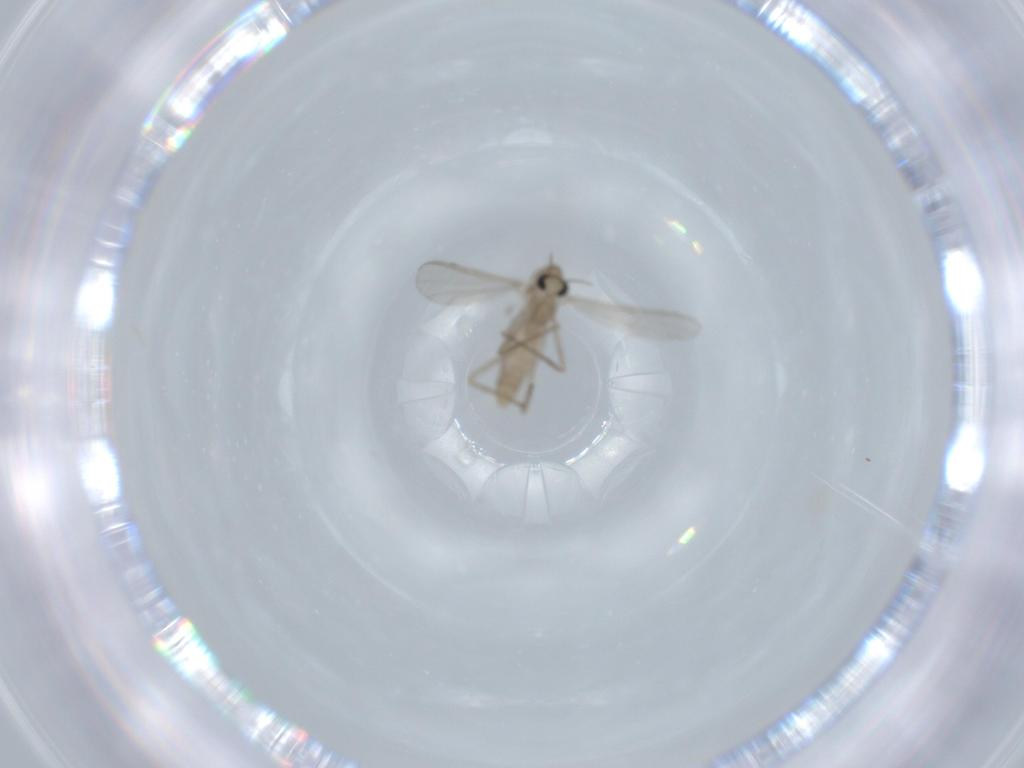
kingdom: Animalia
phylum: Arthropoda
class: Insecta
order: Diptera
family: Chironomidae
